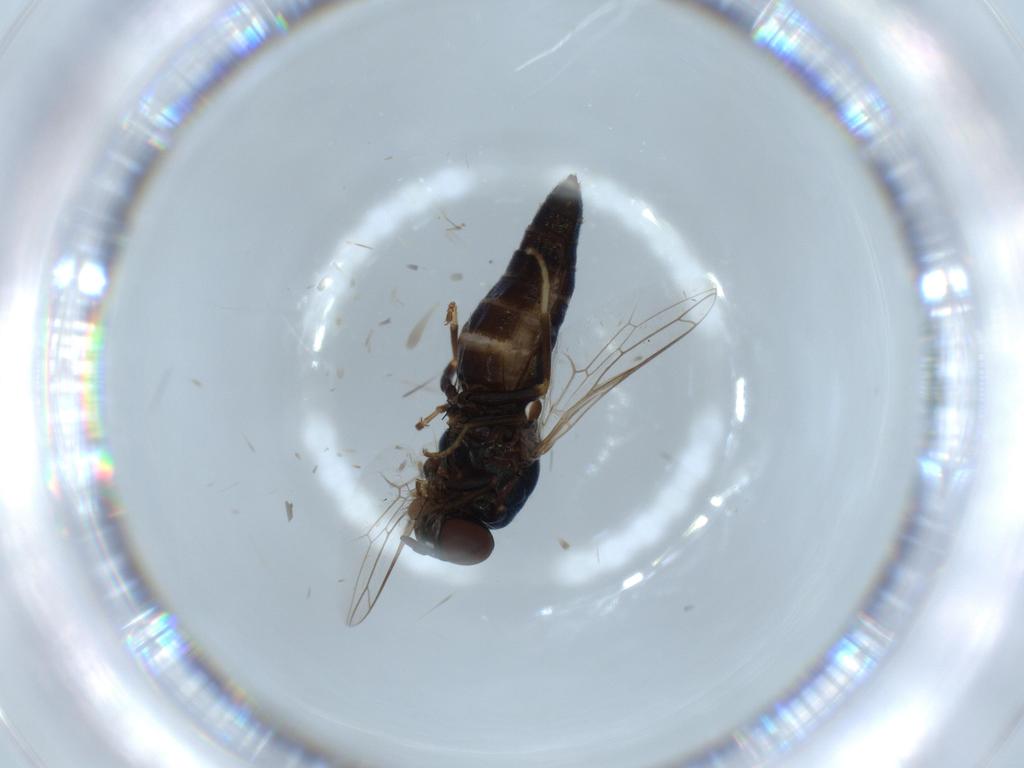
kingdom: Animalia
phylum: Arthropoda
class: Insecta
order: Diptera
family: Scenopinidae
